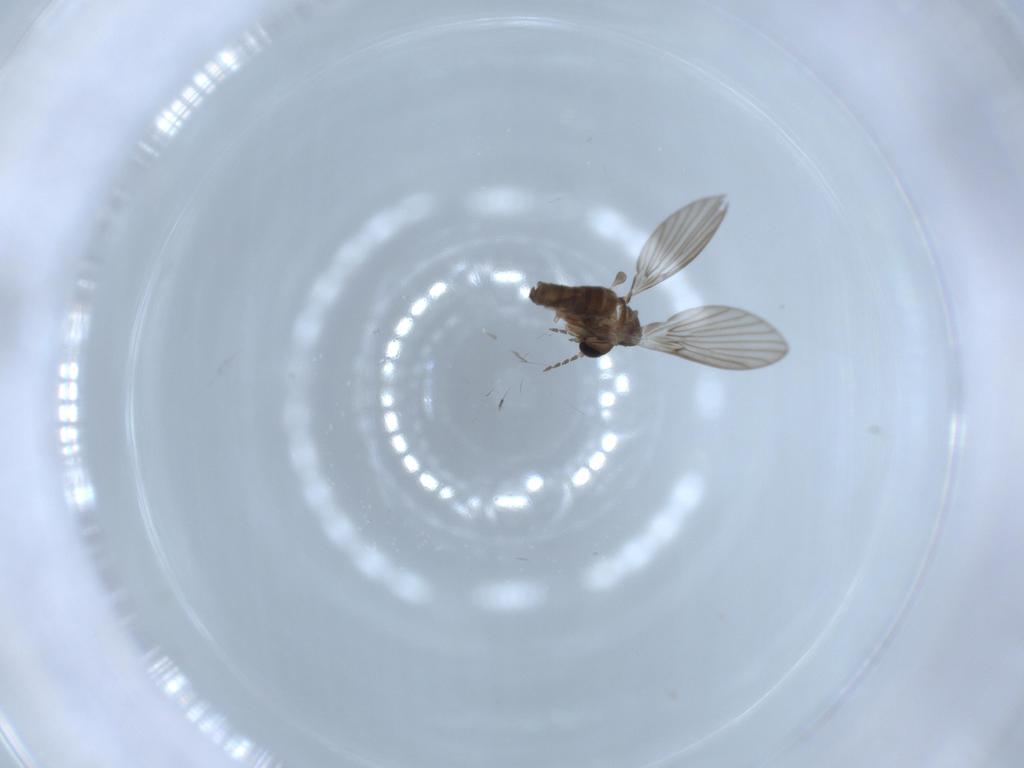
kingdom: Animalia
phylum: Arthropoda
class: Insecta
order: Diptera
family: Psychodidae
